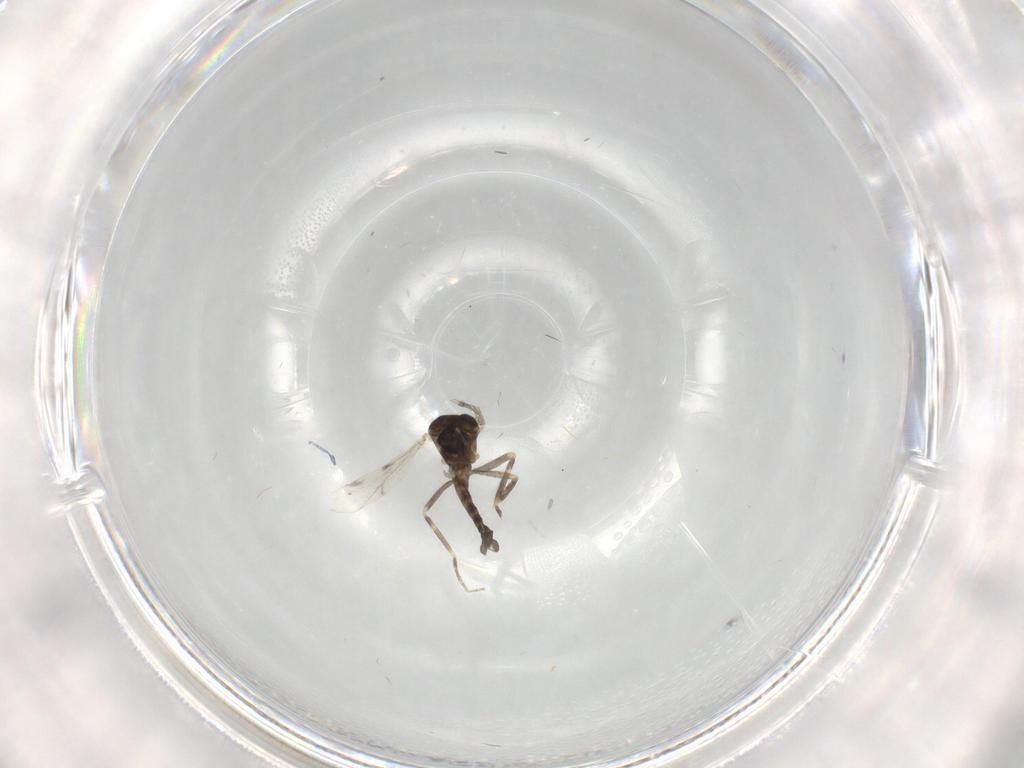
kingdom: Animalia
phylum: Arthropoda
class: Insecta
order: Diptera
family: Ceratopogonidae
